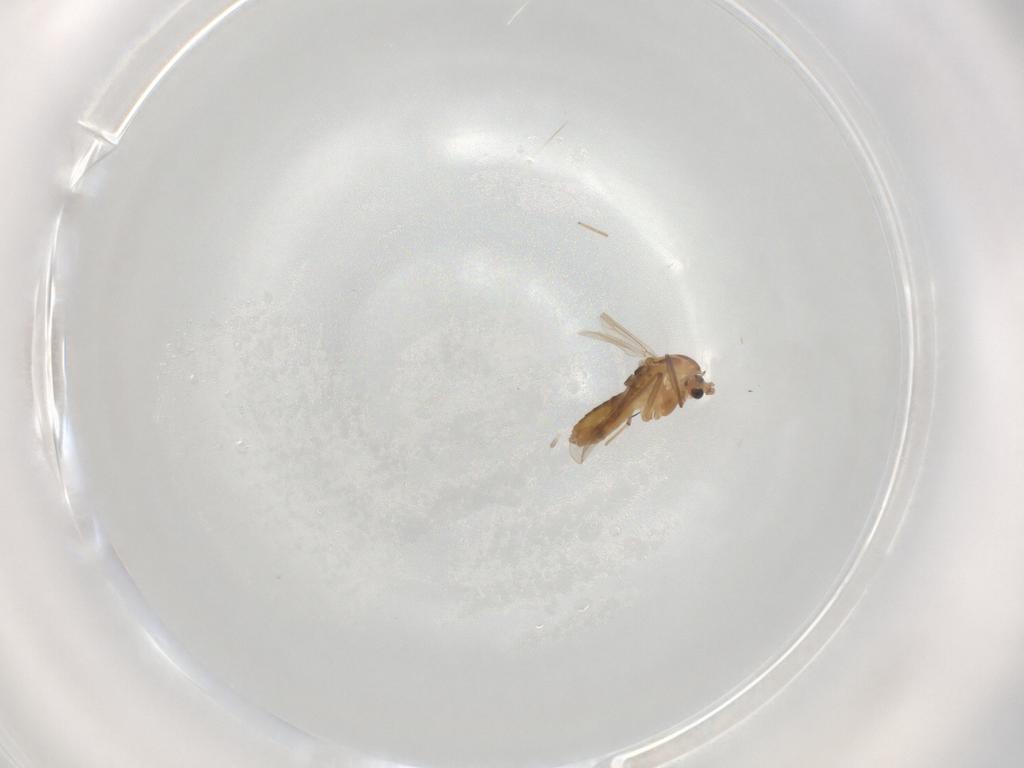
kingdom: Animalia
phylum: Arthropoda
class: Insecta
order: Diptera
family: Chironomidae
